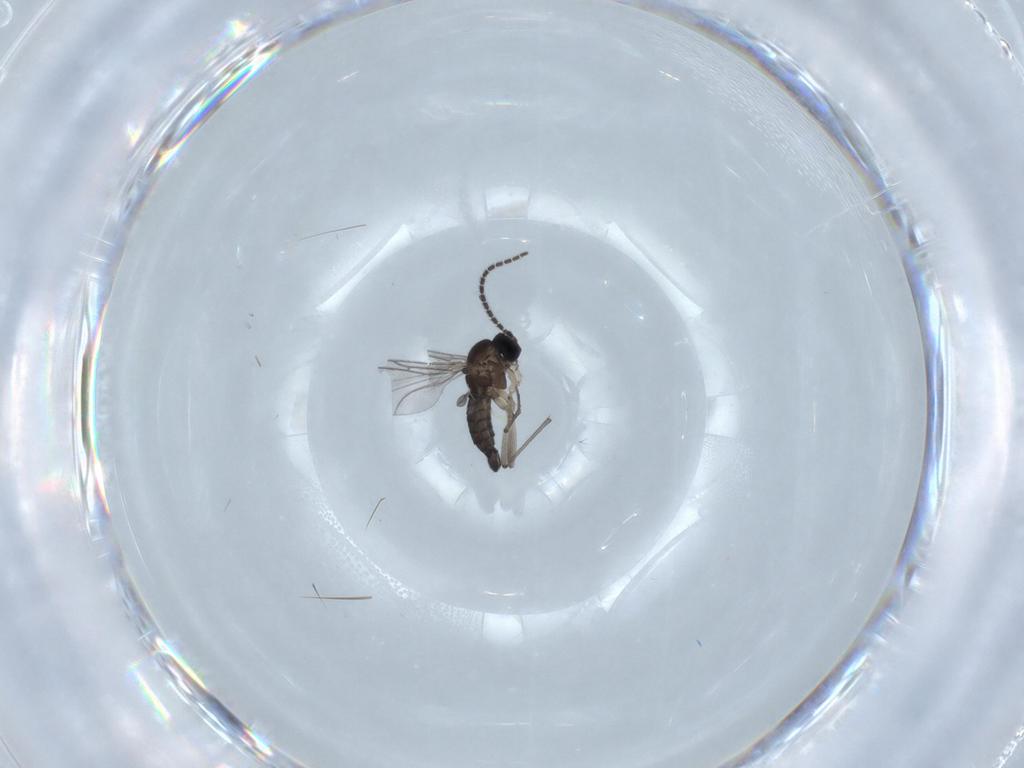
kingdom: Animalia
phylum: Arthropoda
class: Insecta
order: Diptera
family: Sciaridae
